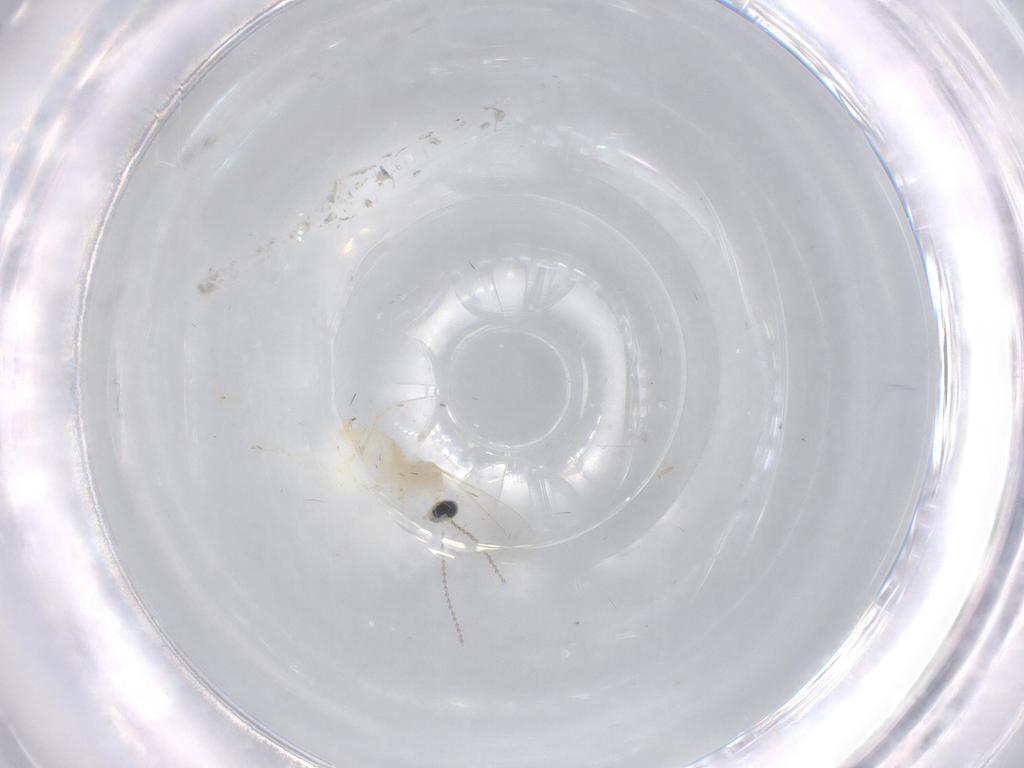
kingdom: Animalia
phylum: Arthropoda
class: Insecta
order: Diptera
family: Cecidomyiidae
